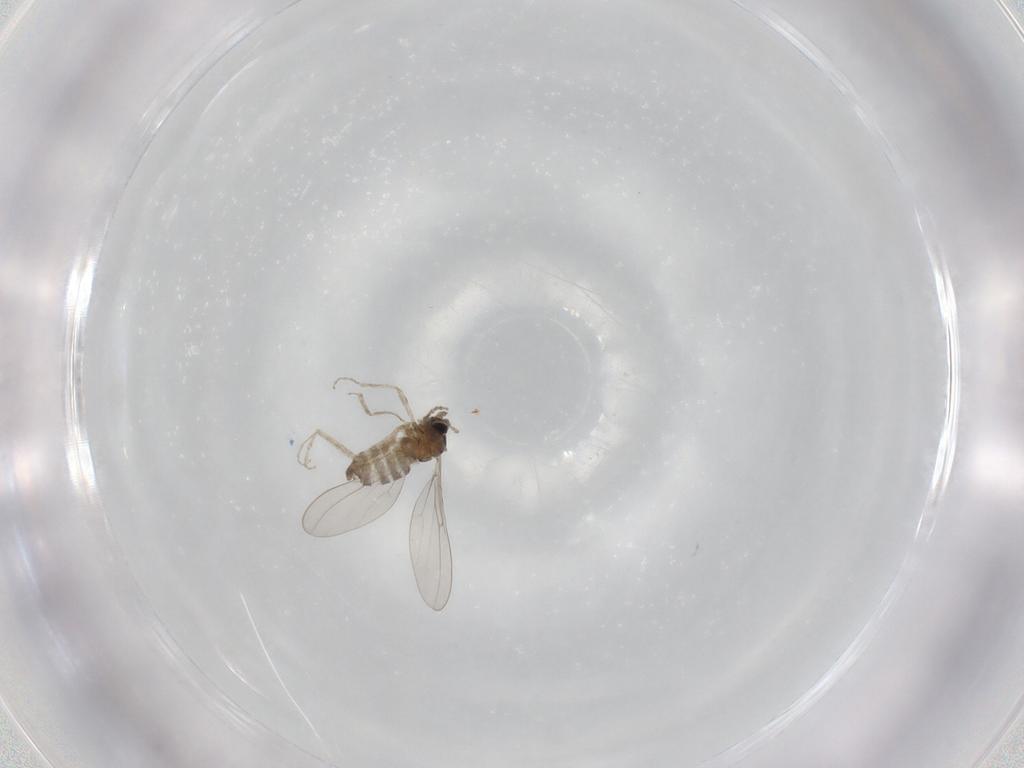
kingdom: Animalia
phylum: Arthropoda
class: Insecta
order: Diptera
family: Cecidomyiidae
